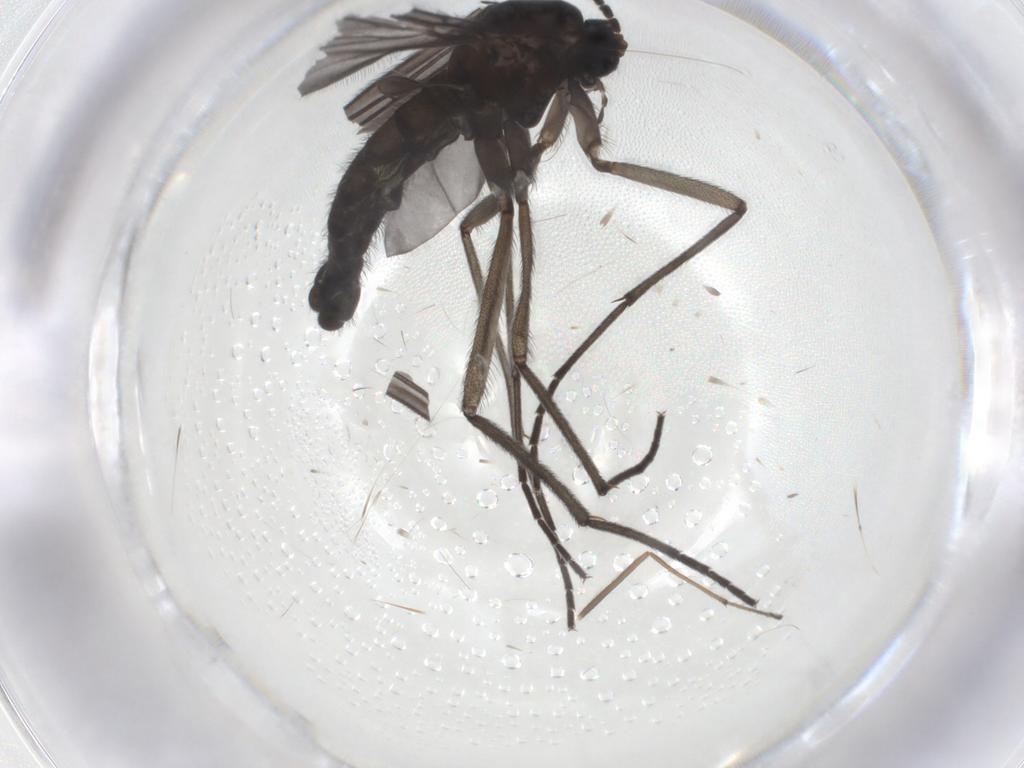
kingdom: Animalia
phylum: Arthropoda
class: Insecta
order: Diptera
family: Sciaridae
